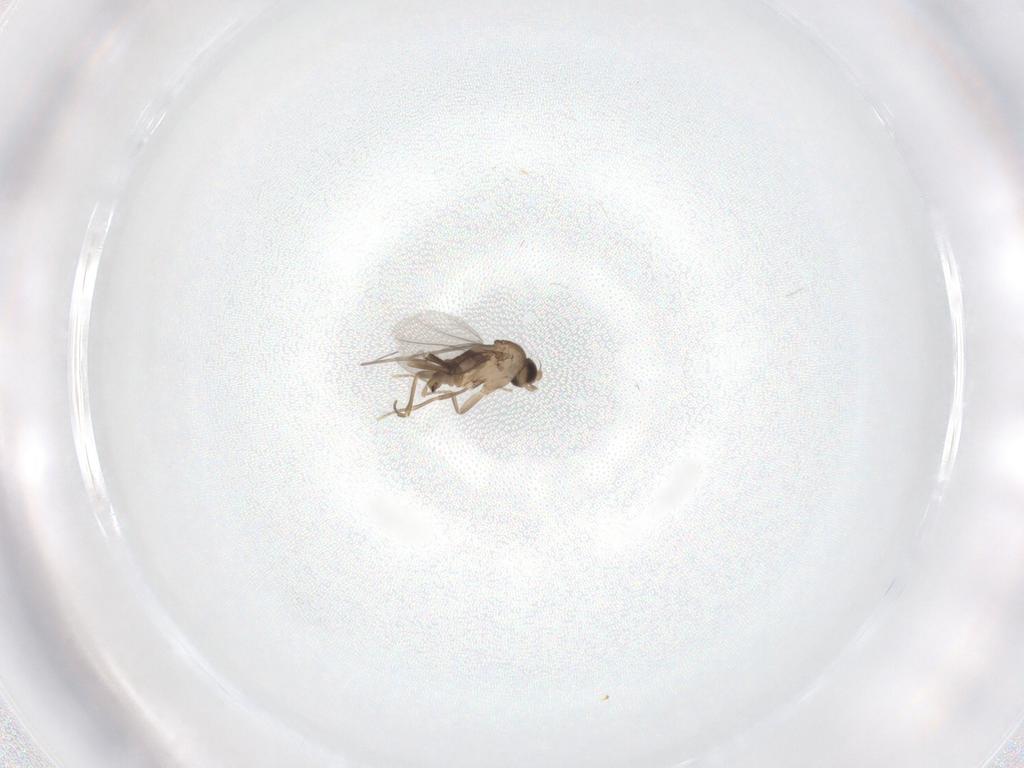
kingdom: Animalia
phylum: Arthropoda
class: Insecta
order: Diptera
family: Phoridae
